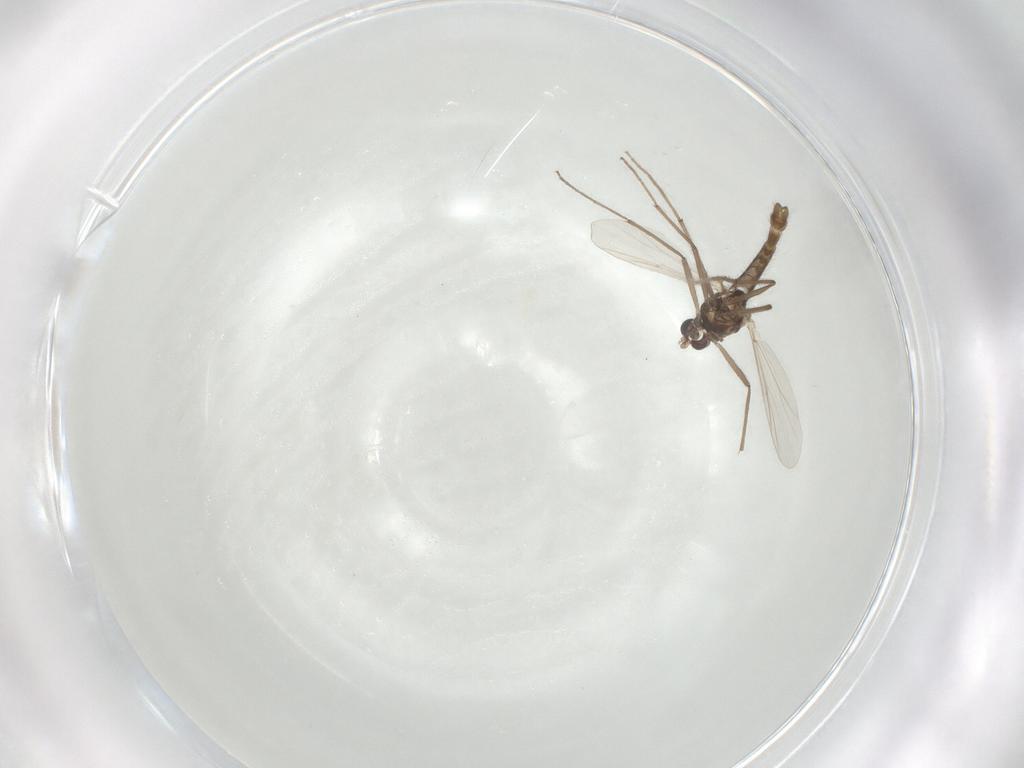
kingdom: Animalia
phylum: Arthropoda
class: Insecta
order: Diptera
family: Chironomidae
